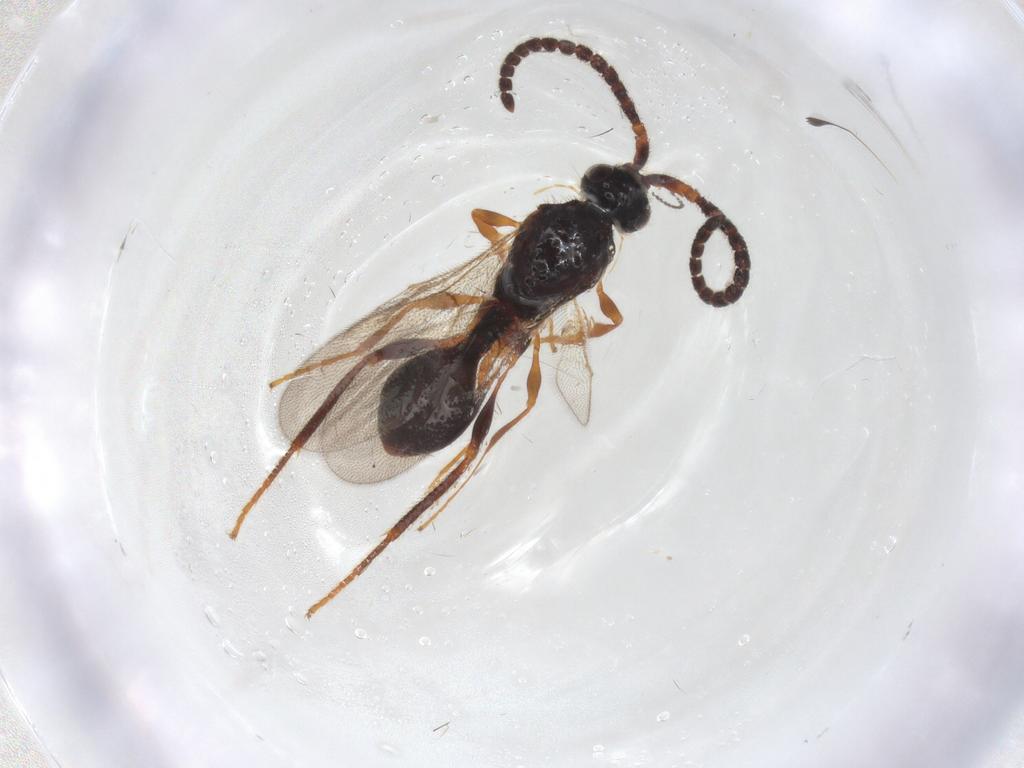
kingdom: Animalia
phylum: Arthropoda
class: Insecta
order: Hymenoptera
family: Formicidae
